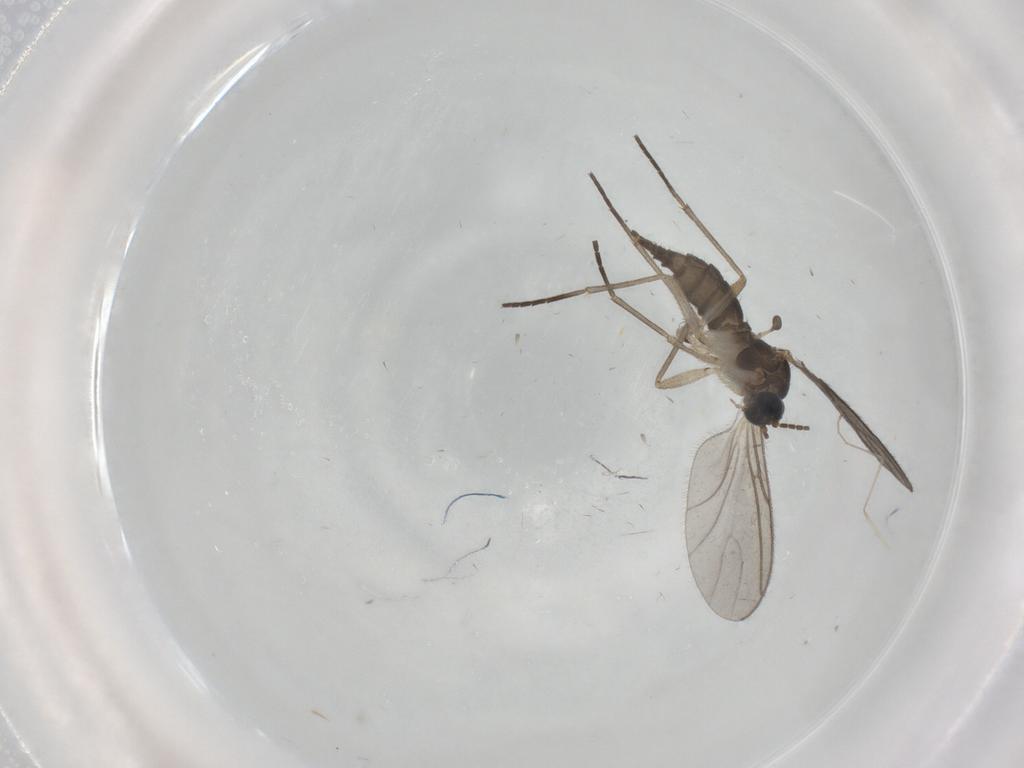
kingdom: Animalia
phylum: Arthropoda
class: Insecta
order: Diptera
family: Sciaridae
